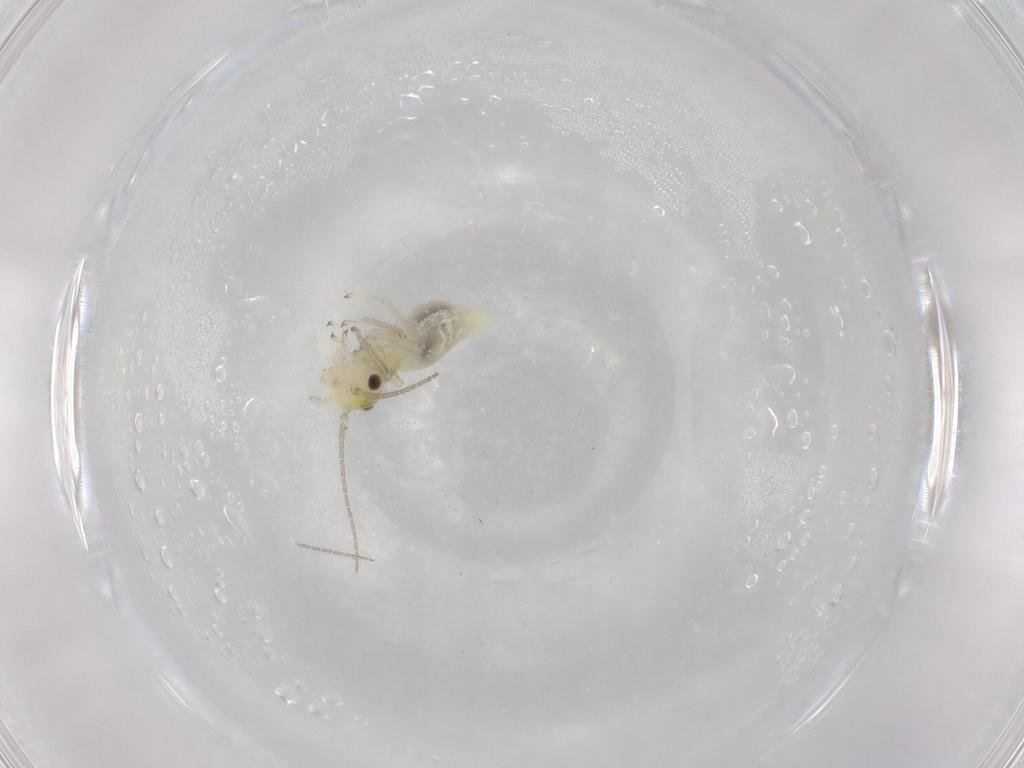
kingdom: Animalia
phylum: Arthropoda
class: Insecta
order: Psocodea
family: Caeciliusidae
